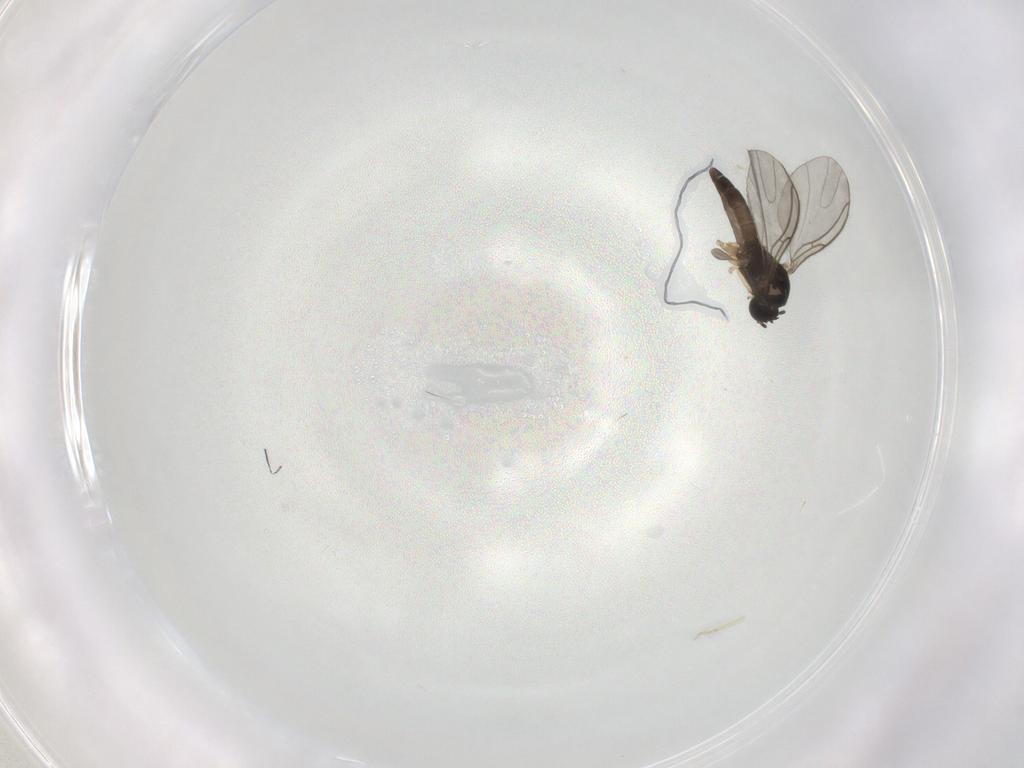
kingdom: Animalia
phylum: Arthropoda
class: Insecta
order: Diptera
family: Sciaridae
